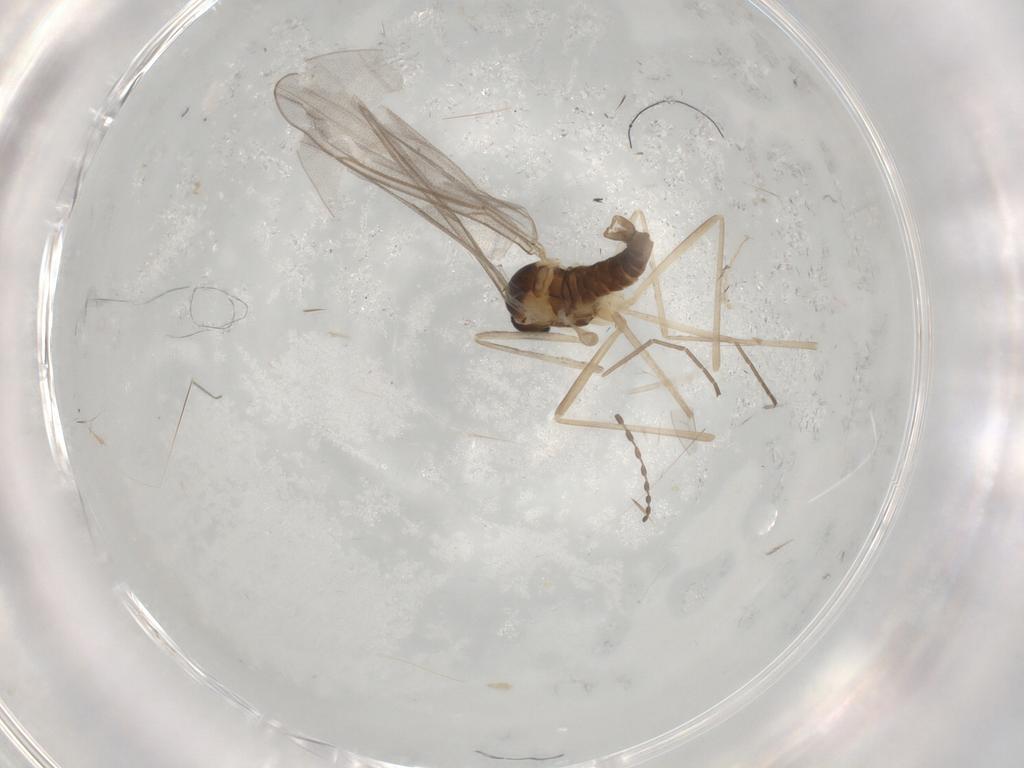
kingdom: Animalia
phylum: Arthropoda
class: Insecta
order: Diptera
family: Cecidomyiidae
